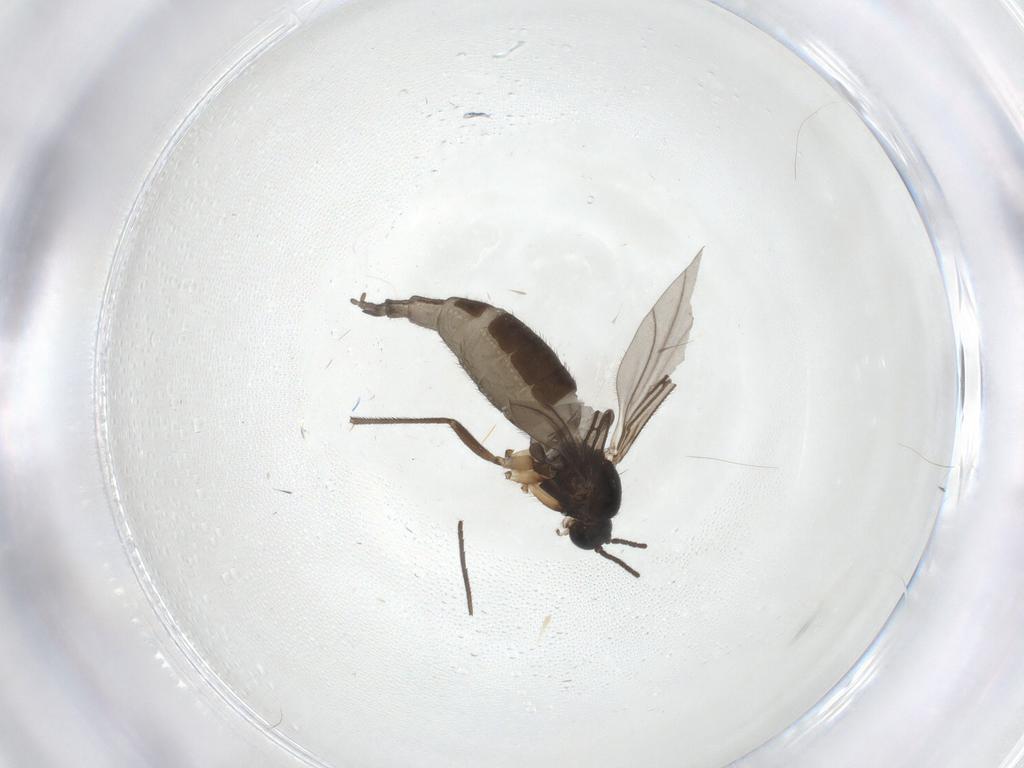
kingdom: Animalia
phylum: Arthropoda
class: Insecta
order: Diptera
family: Sciaridae
